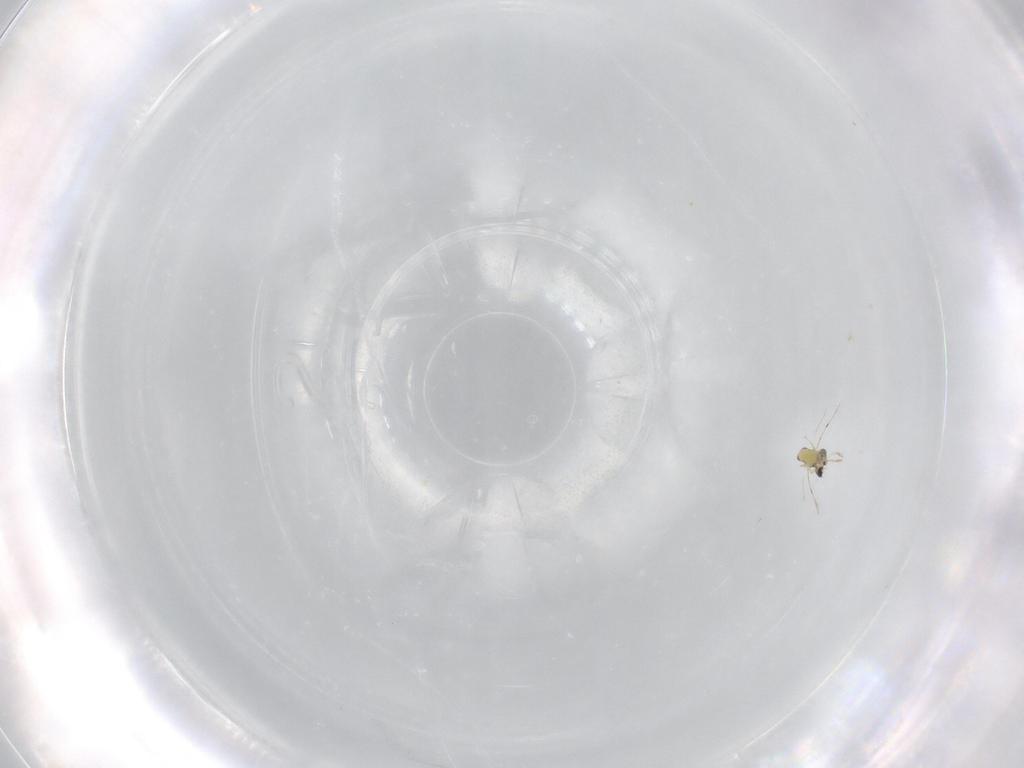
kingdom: Animalia
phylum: Arthropoda
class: Insecta
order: Hymenoptera
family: Trichogrammatidae
